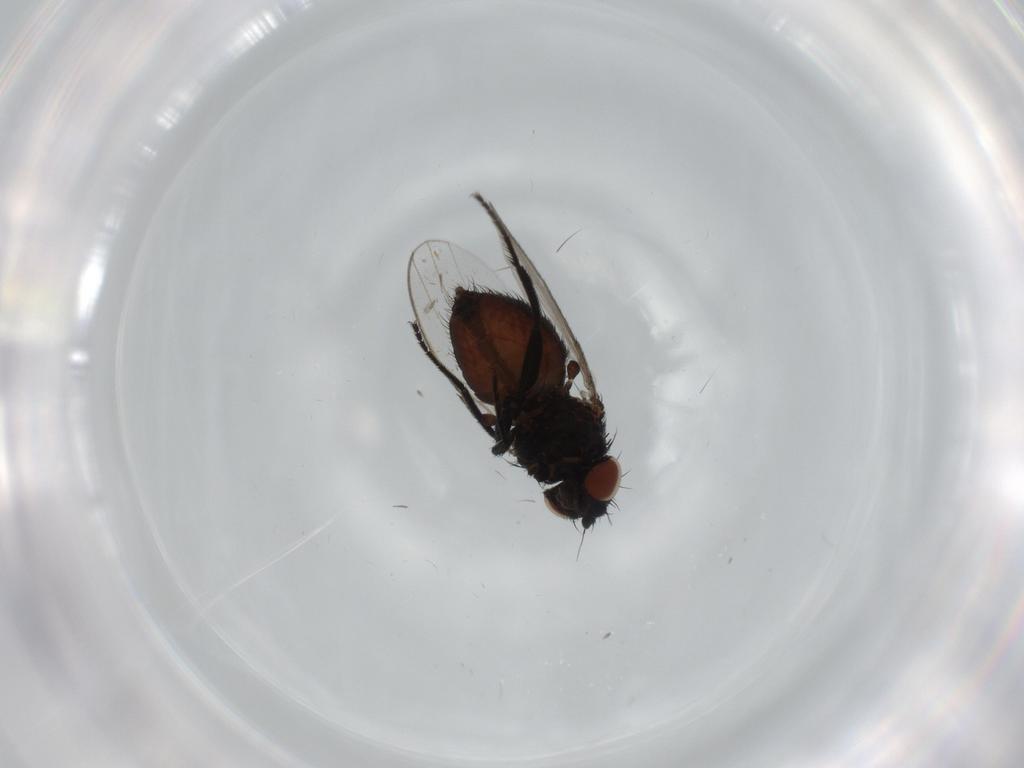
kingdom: Animalia
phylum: Arthropoda
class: Insecta
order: Diptera
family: Milichiidae
